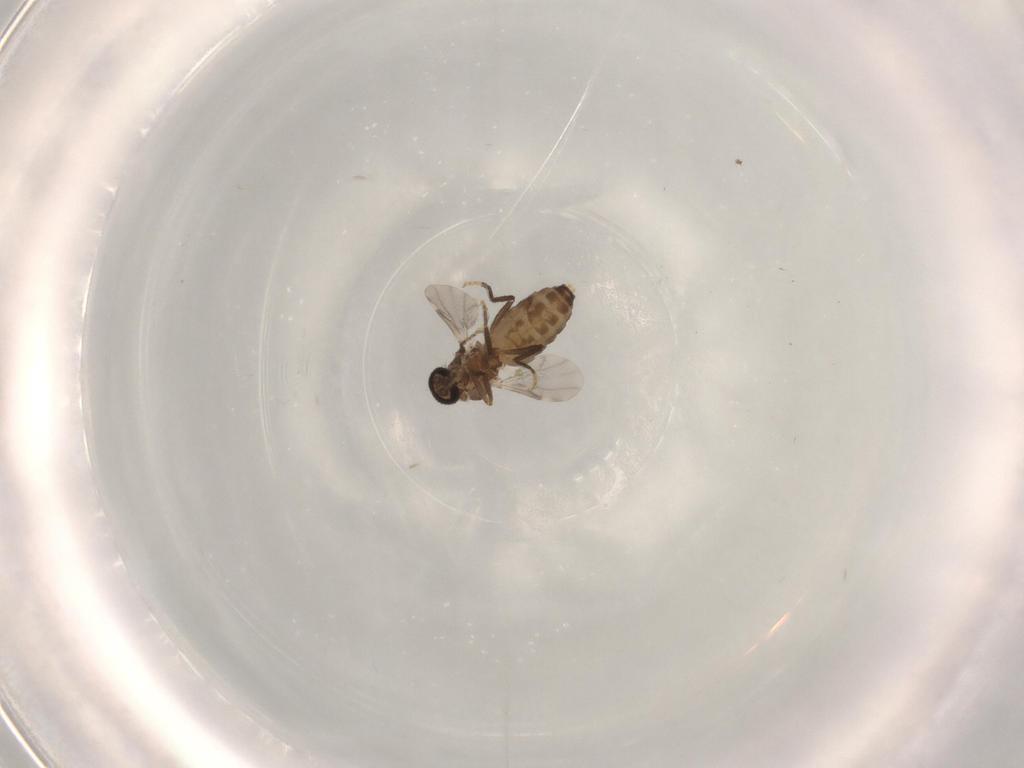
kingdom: Animalia
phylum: Arthropoda
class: Insecta
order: Diptera
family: Ceratopogonidae
